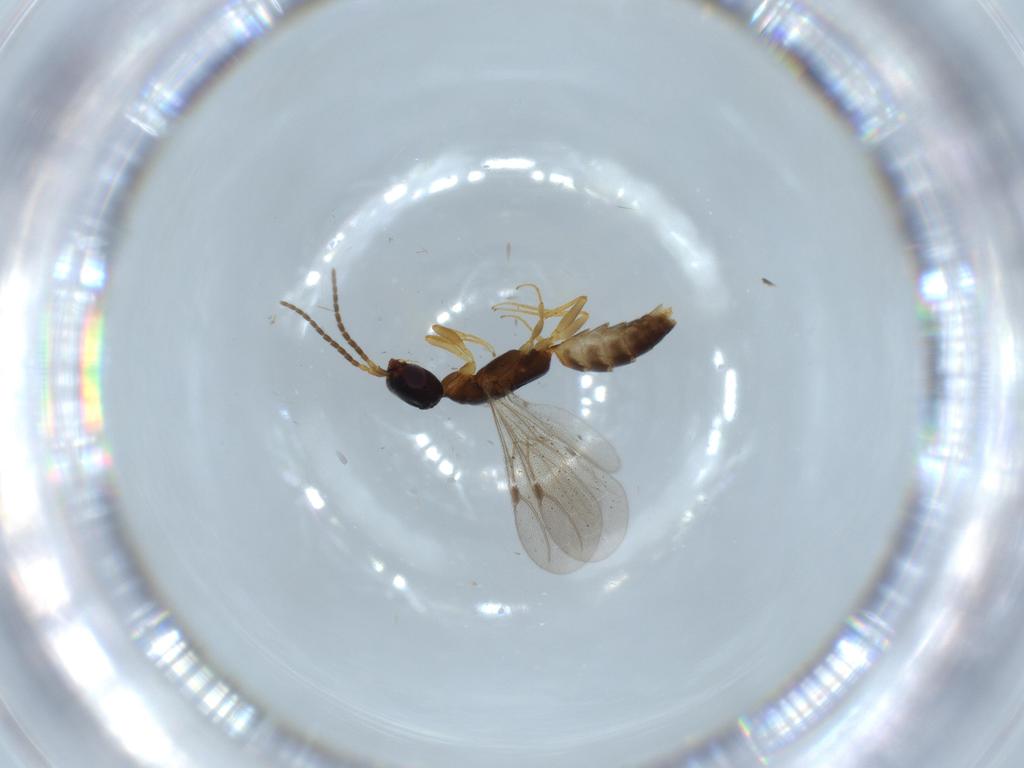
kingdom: Animalia
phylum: Arthropoda
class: Insecta
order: Hymenoptera
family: Bethylidae
